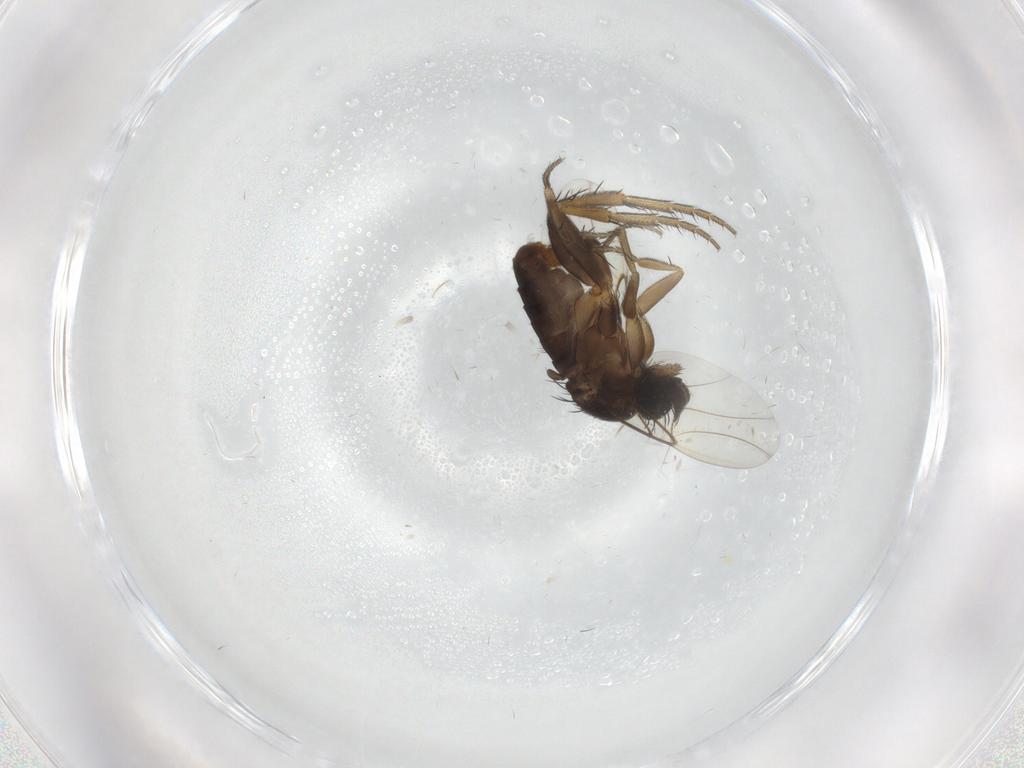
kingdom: Animalia
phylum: Arthropoda
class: Insecta
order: Diptera
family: Phoridae
